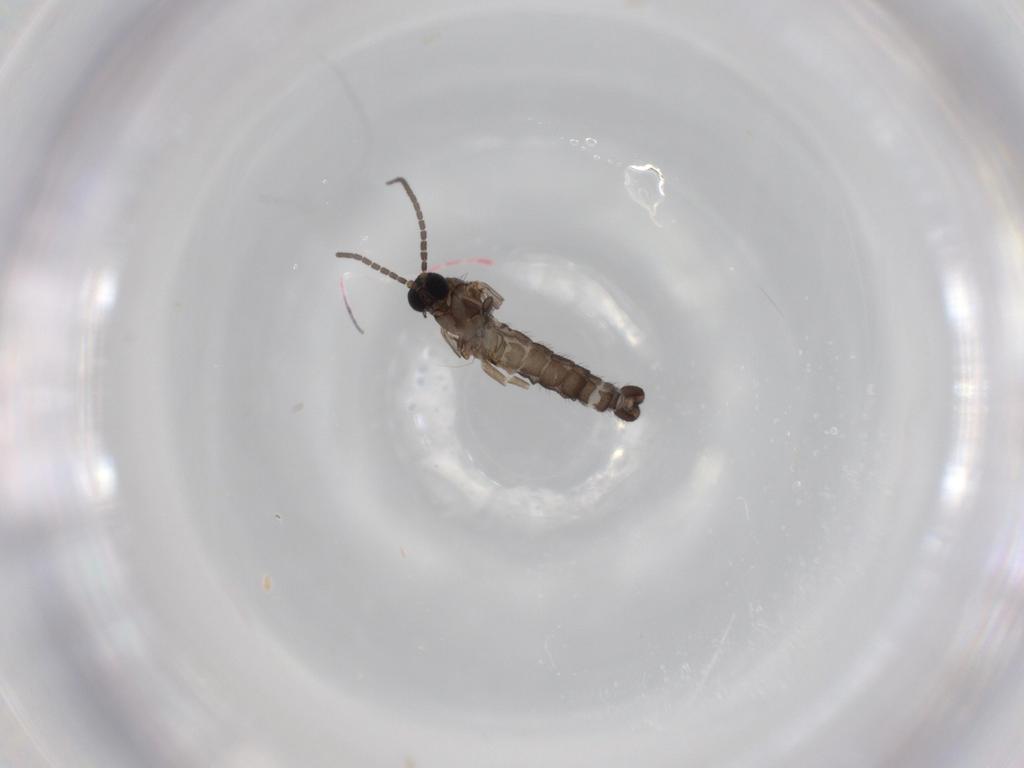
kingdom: Animalia
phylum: Arthropoda
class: Insecta
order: Diptera
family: Sciaridae
